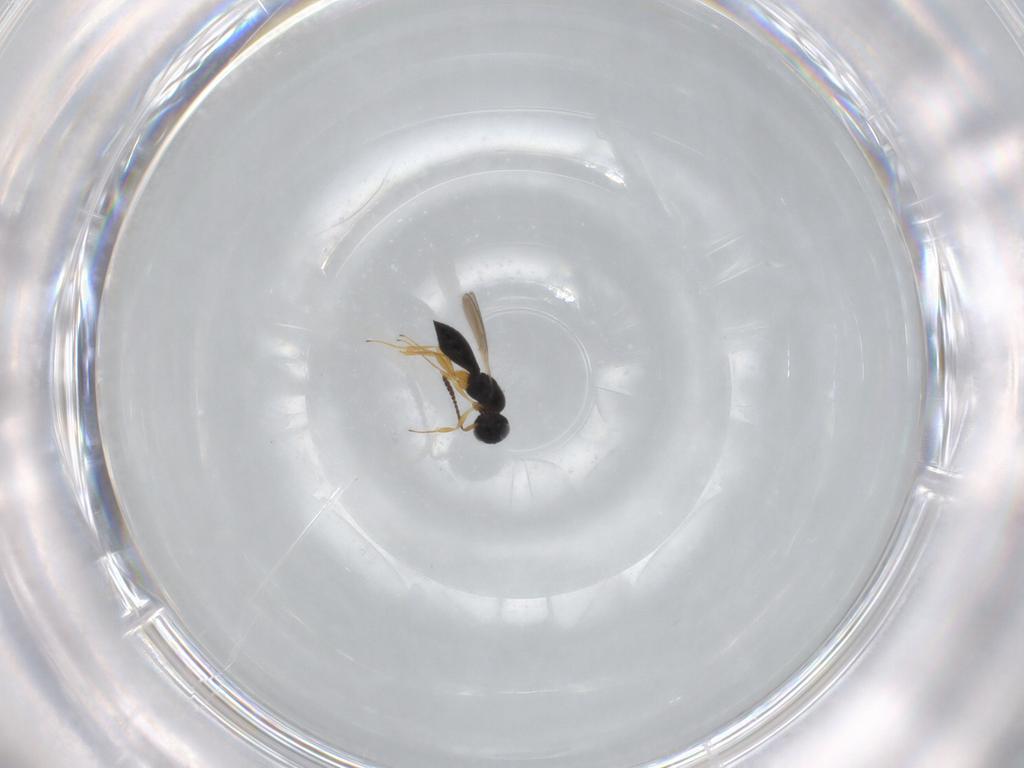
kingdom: Animalia
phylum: Arthropoda
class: Insecta
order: Hymenoptera
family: Scelionidae
